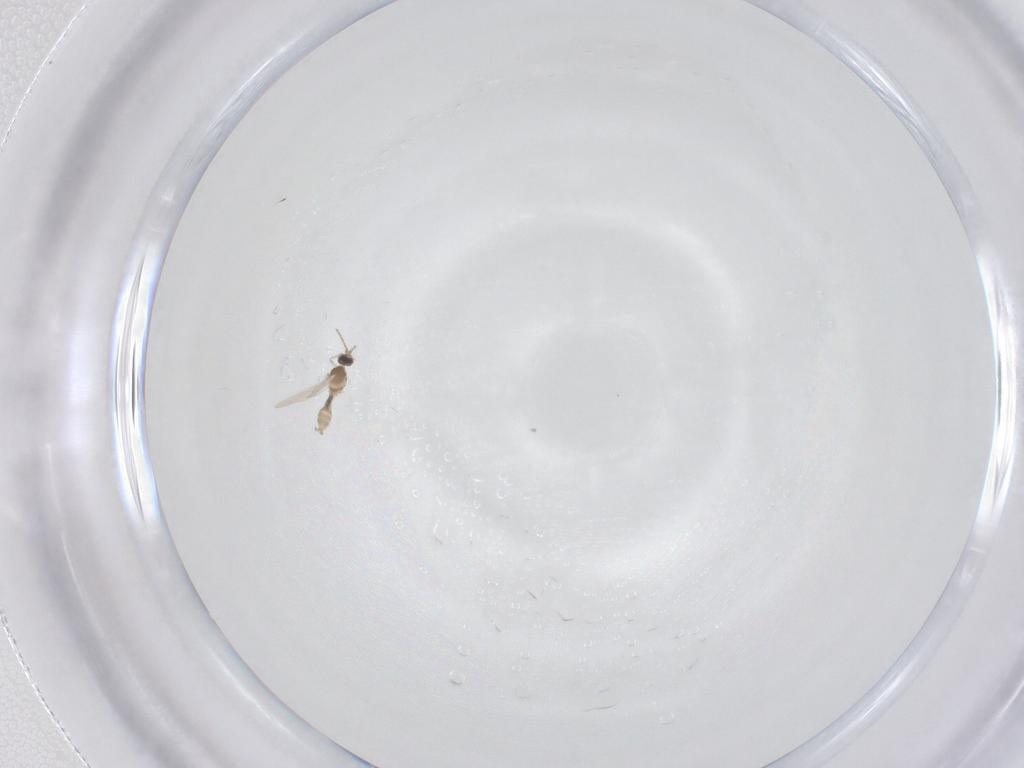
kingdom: Animalia
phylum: Arthropoda
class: Insecta
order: Diptera
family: Cecidomyiidae
